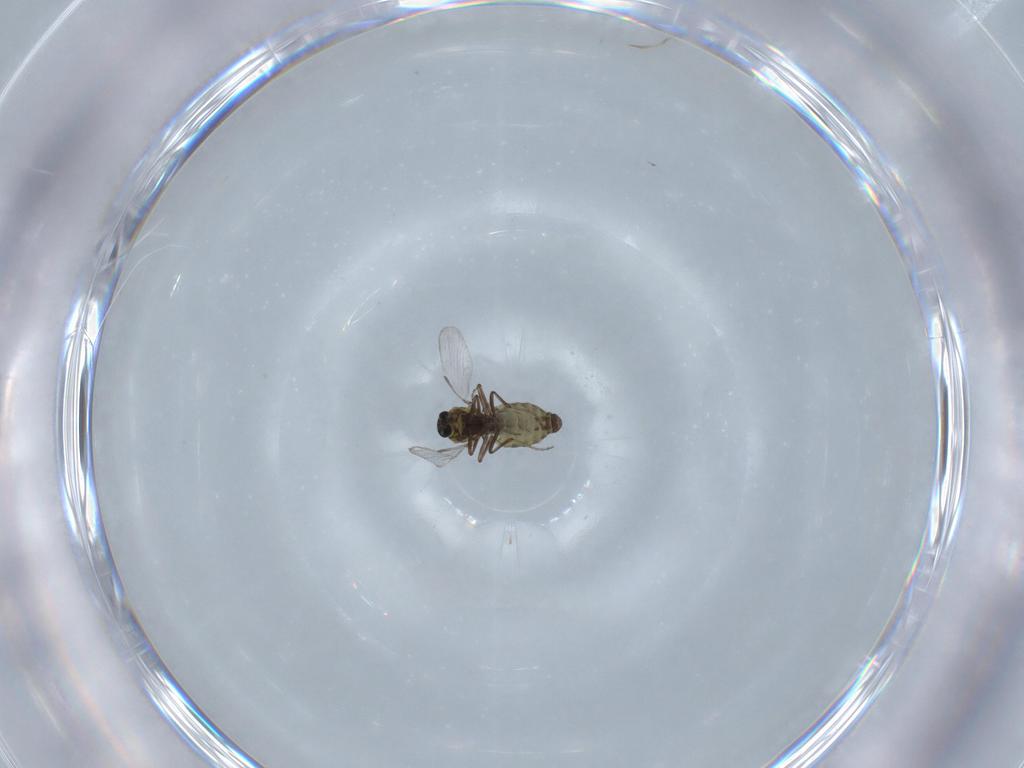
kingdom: Animalia
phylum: Arthropoda
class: Insecta
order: Diptera
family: Ceratopogonidae
